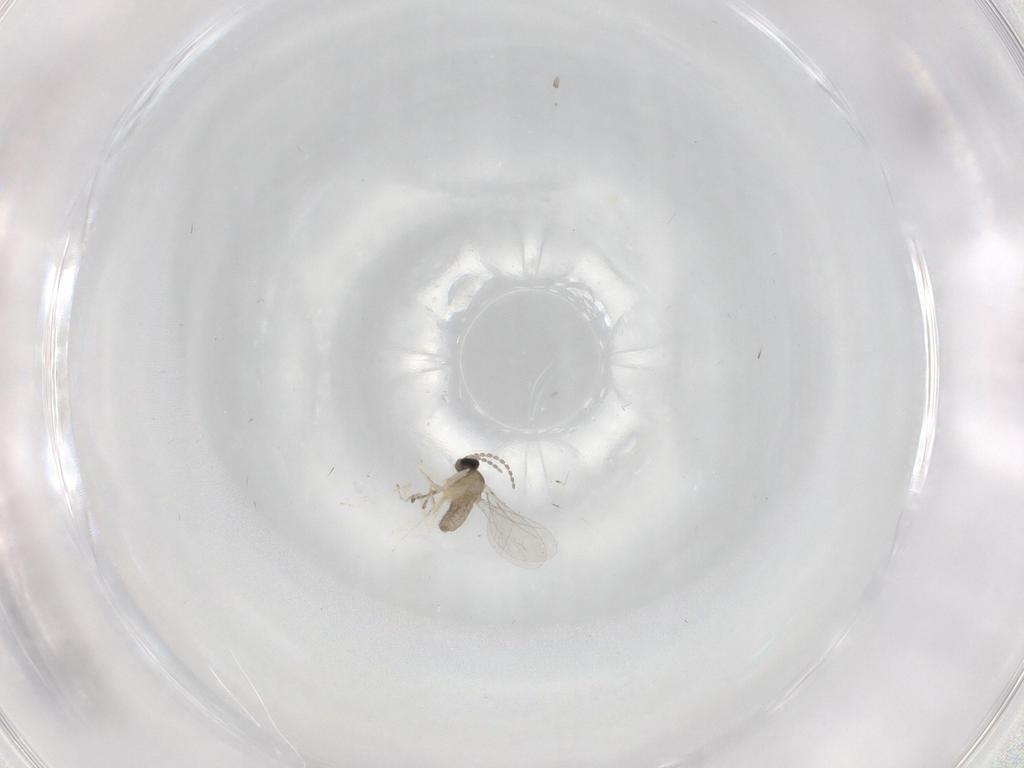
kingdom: Animalia
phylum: Arthropoda
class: Insecta
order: Diptera
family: Cecidomyiidae
